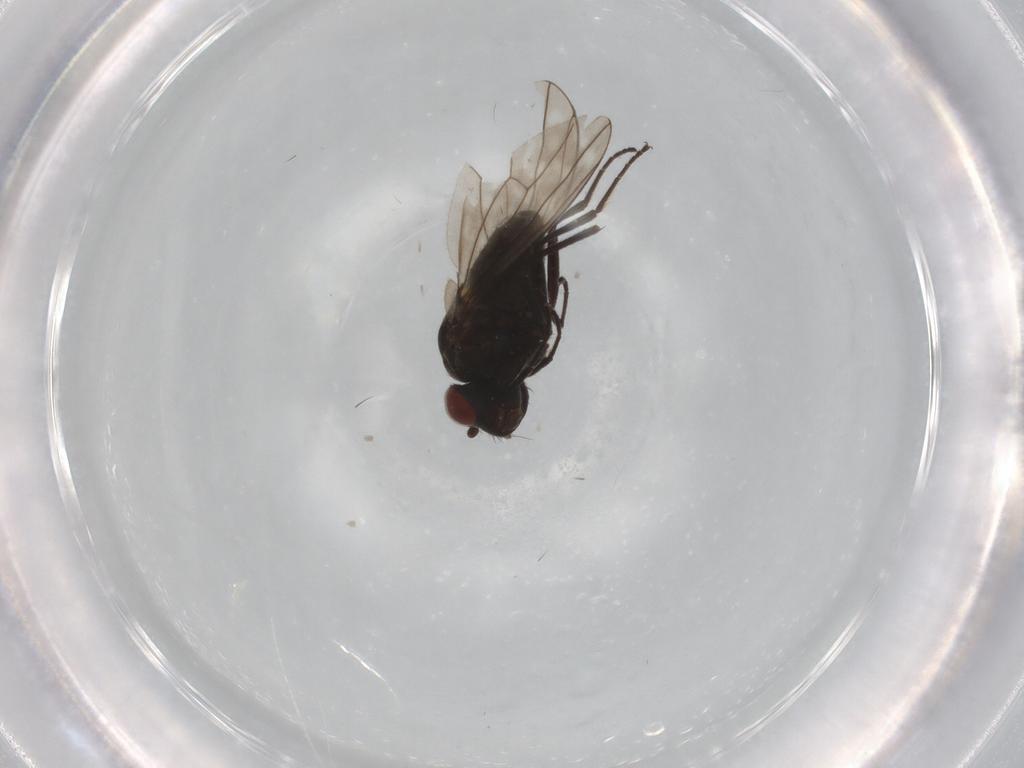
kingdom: Animalia
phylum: Arthropoda
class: Insecta
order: Diptera
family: Ephydridae
